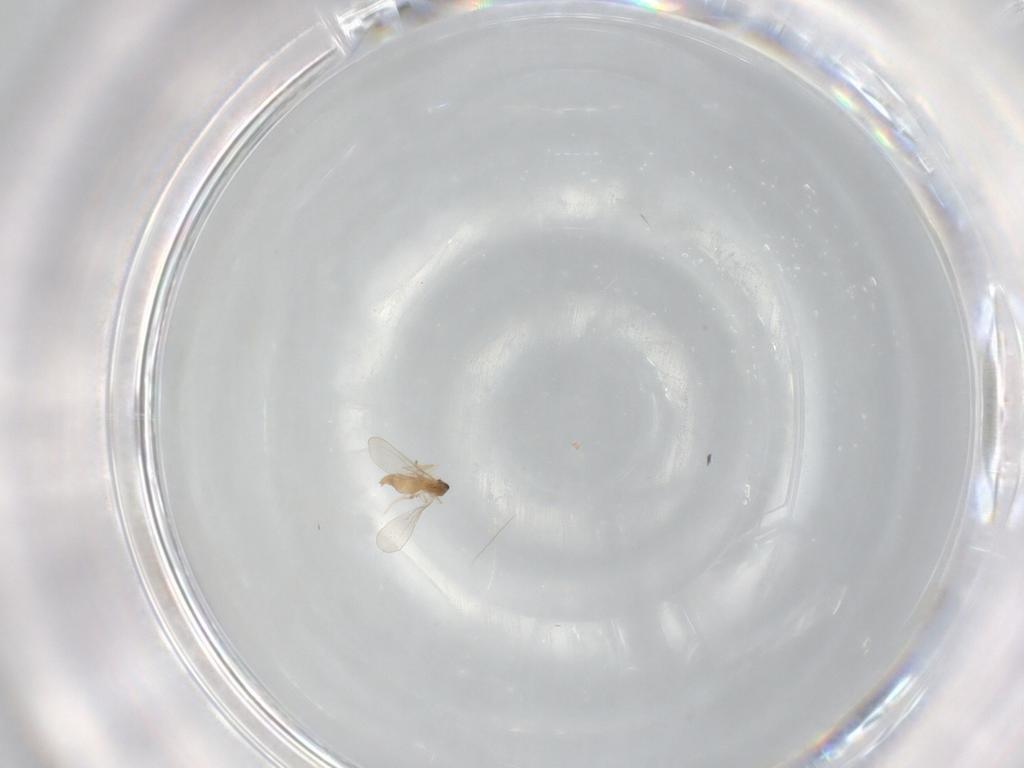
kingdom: Animalia
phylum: Arthropoda
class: Insecta
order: Diptera
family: Cecidomyiidae
